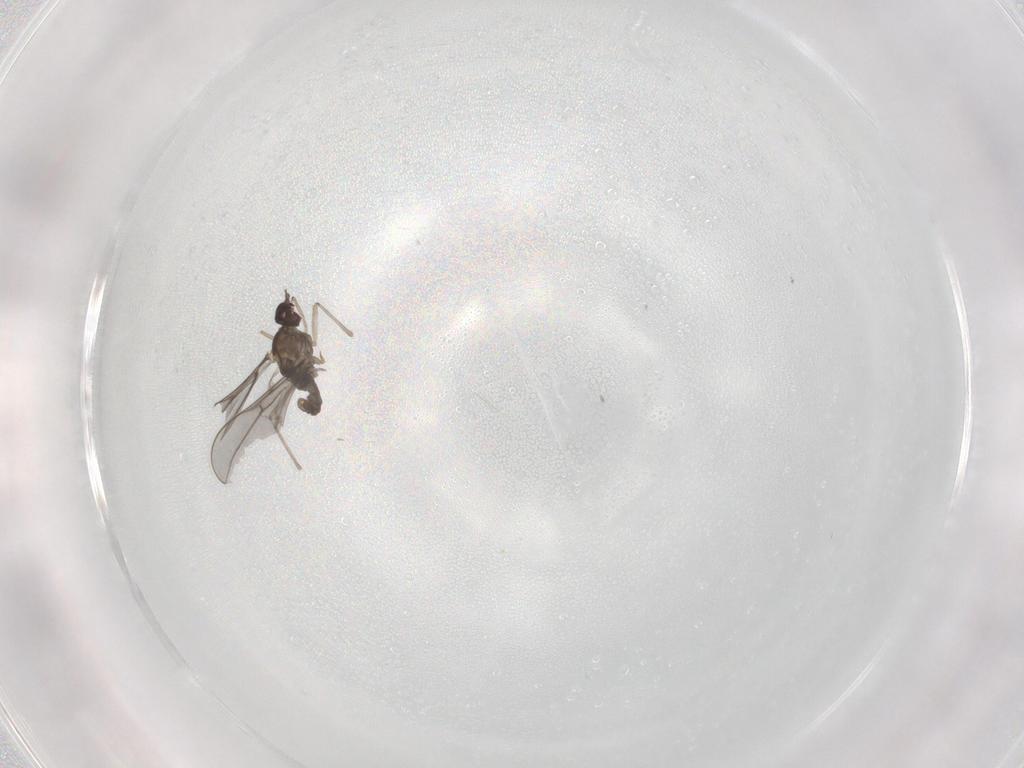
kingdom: Animalia
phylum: Arthropoda
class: Insecta
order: Diptera
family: Cecidomyiidae
